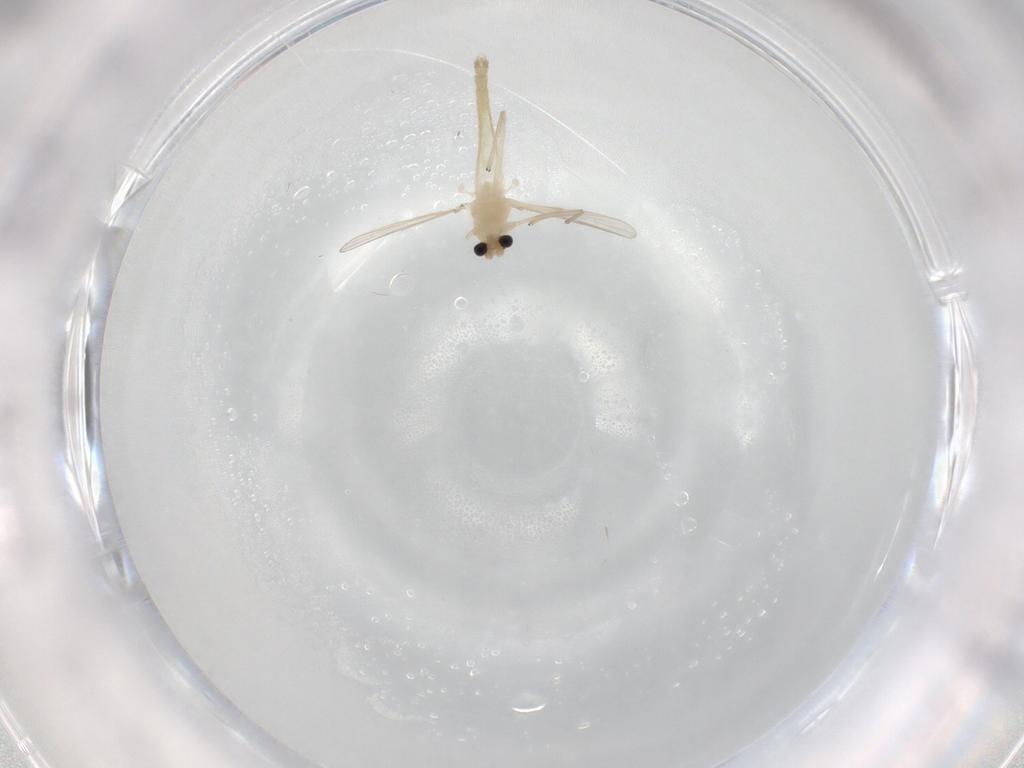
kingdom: Animalia
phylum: Arthropoda
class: Insecta
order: Diptera
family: Chironomidae
